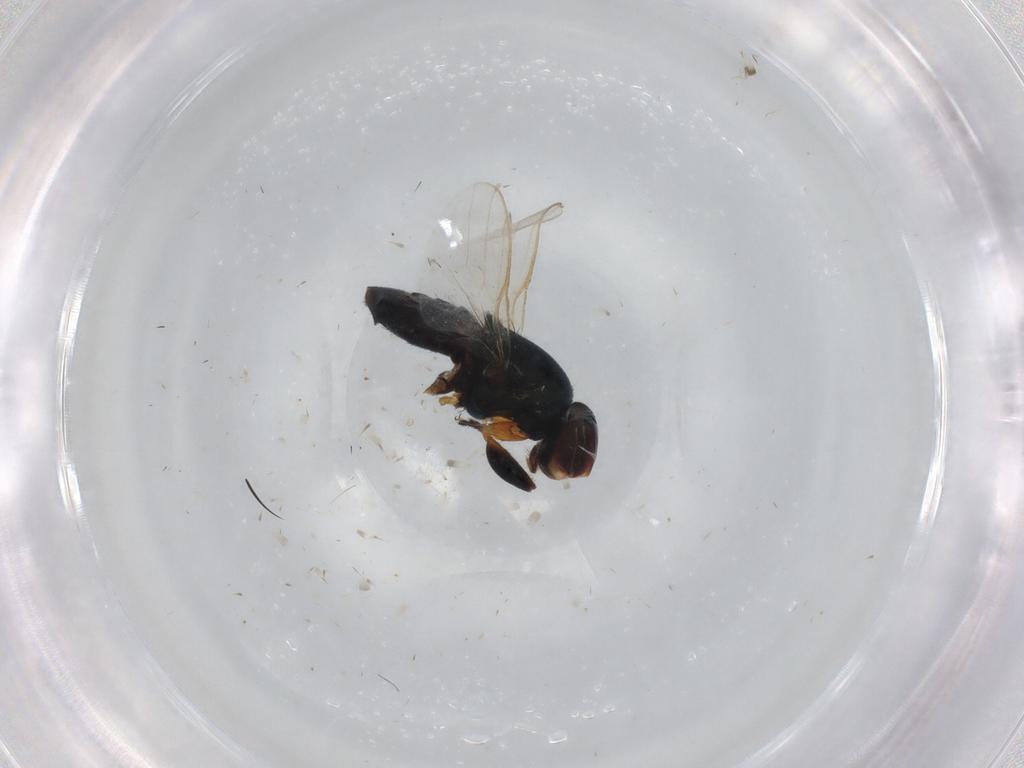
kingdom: Animalia
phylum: Arthropoda
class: Insecta
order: Diptera
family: Chloropidae
